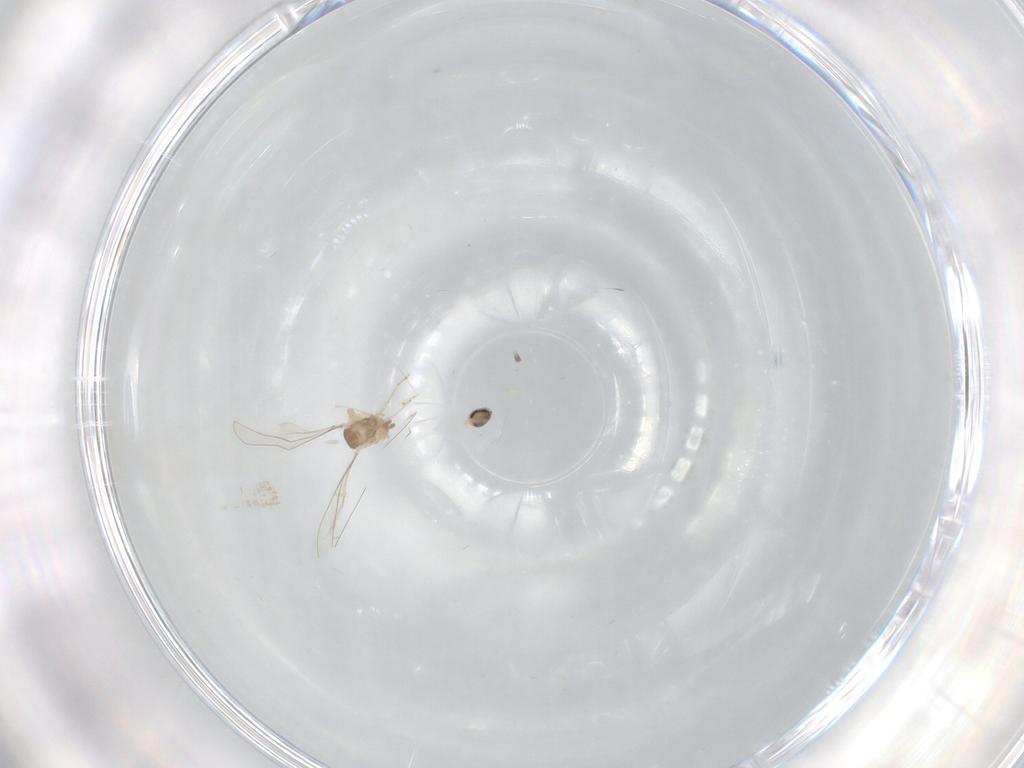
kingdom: Animalia
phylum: Arthropoda
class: Insecta
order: Diptera
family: Cecidomyiidae
